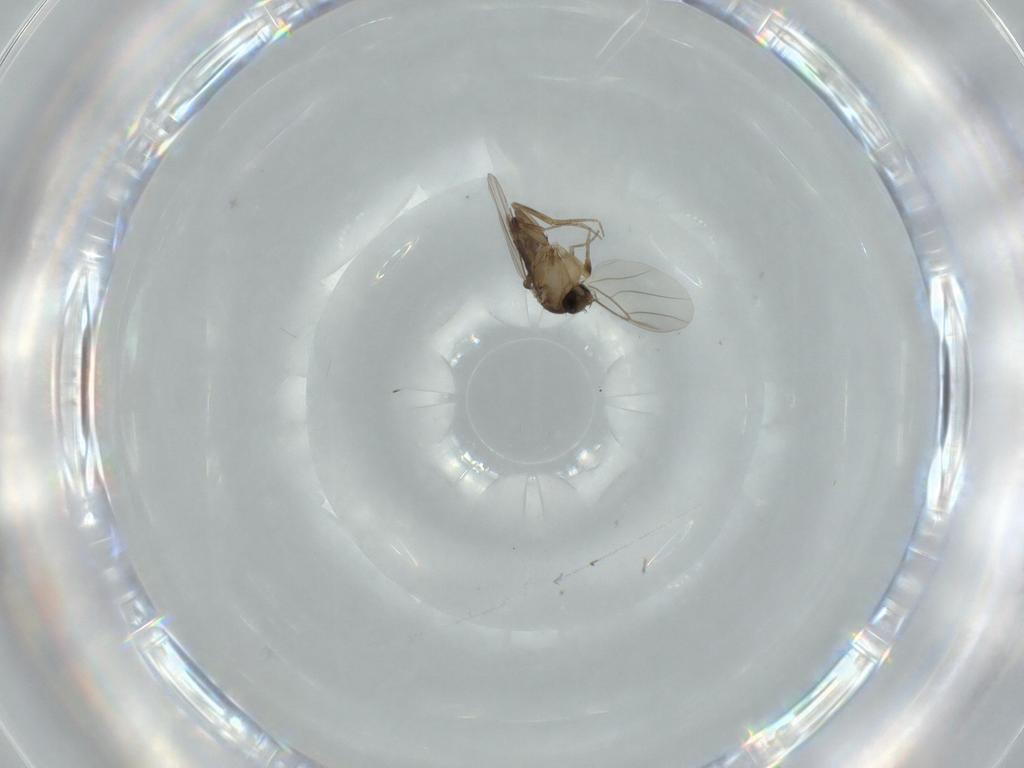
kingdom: Animalia
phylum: Arthropoda
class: Insecta
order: Diptera
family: Phoridae
